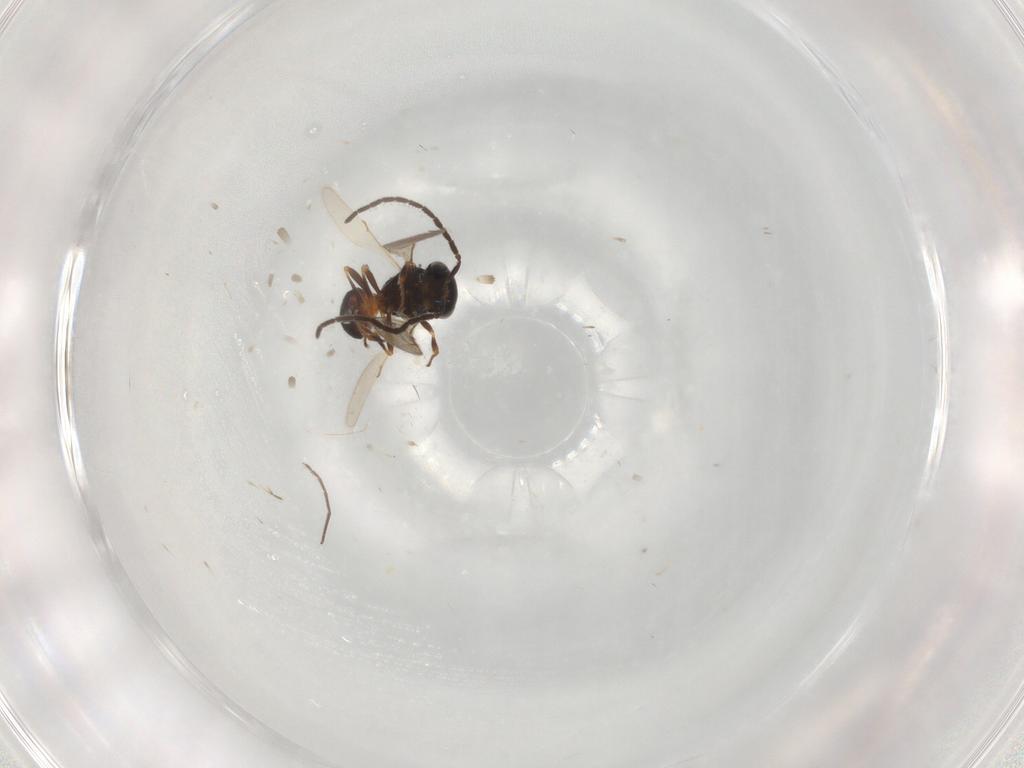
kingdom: Animalia
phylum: Arthropoda
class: Insecta
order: Hymenoptera
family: Scelionidae
